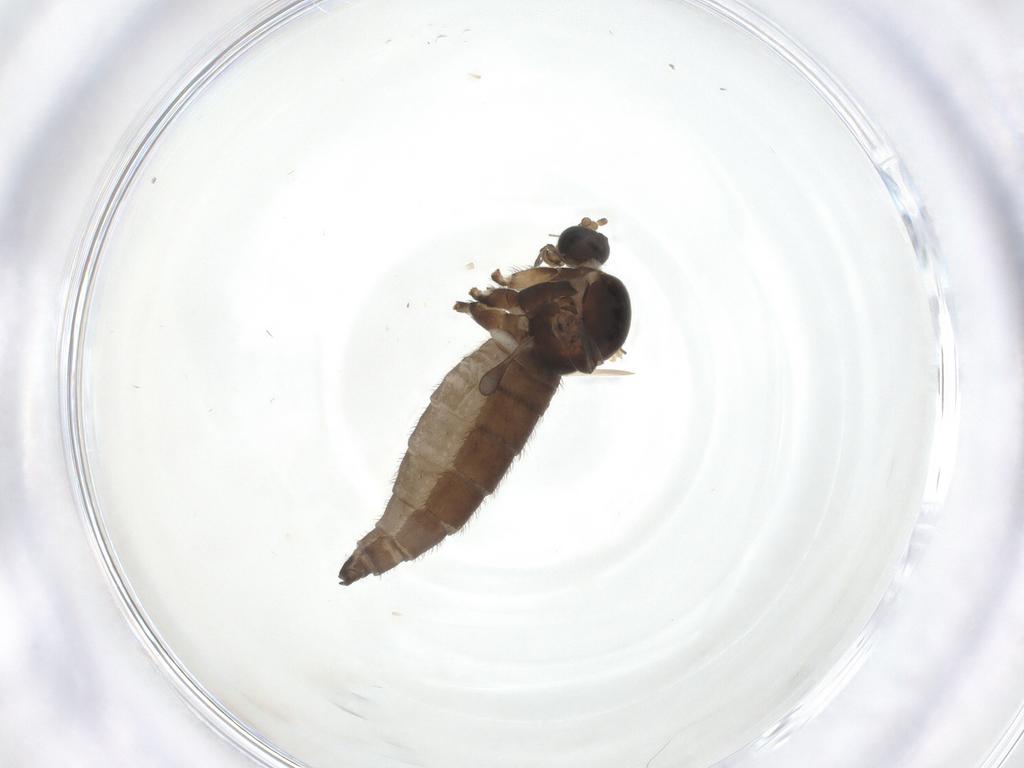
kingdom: Animalia
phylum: Arthropoda
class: Insecta
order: Diptera
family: Sciaridae
